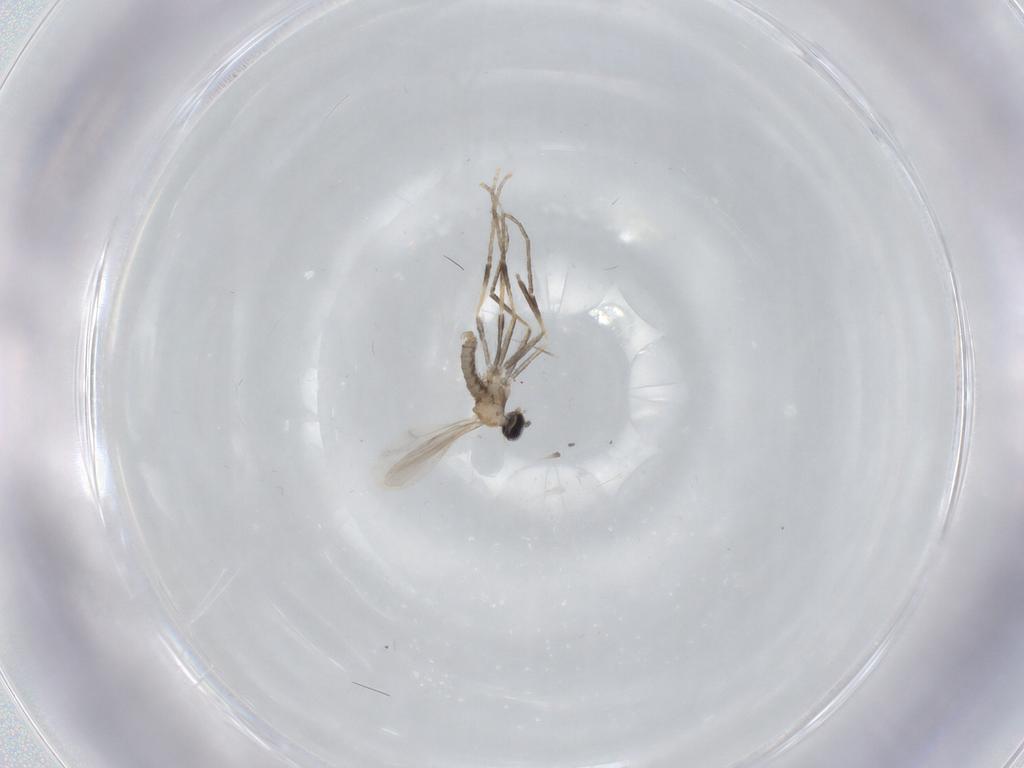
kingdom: Animalia
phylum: Arthropoda
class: Insecta
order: Diptera
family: Cecidomyiidae
